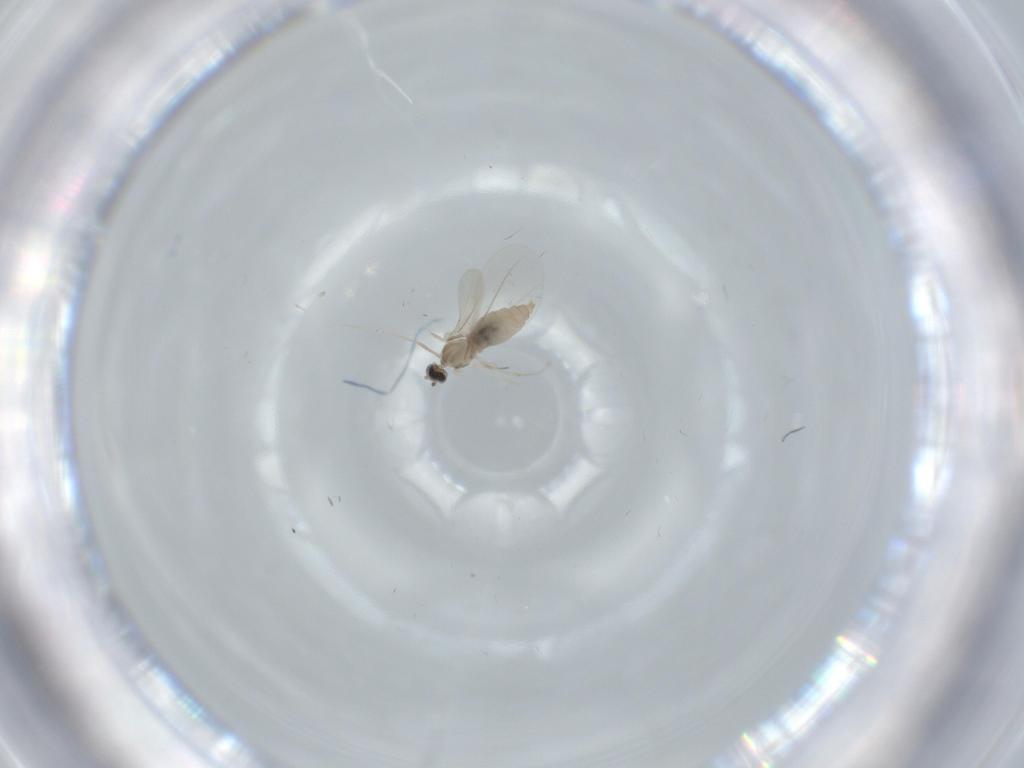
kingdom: Animalia
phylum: Arthropoda
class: Insecta
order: Diptera
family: Cecidomyiidae
